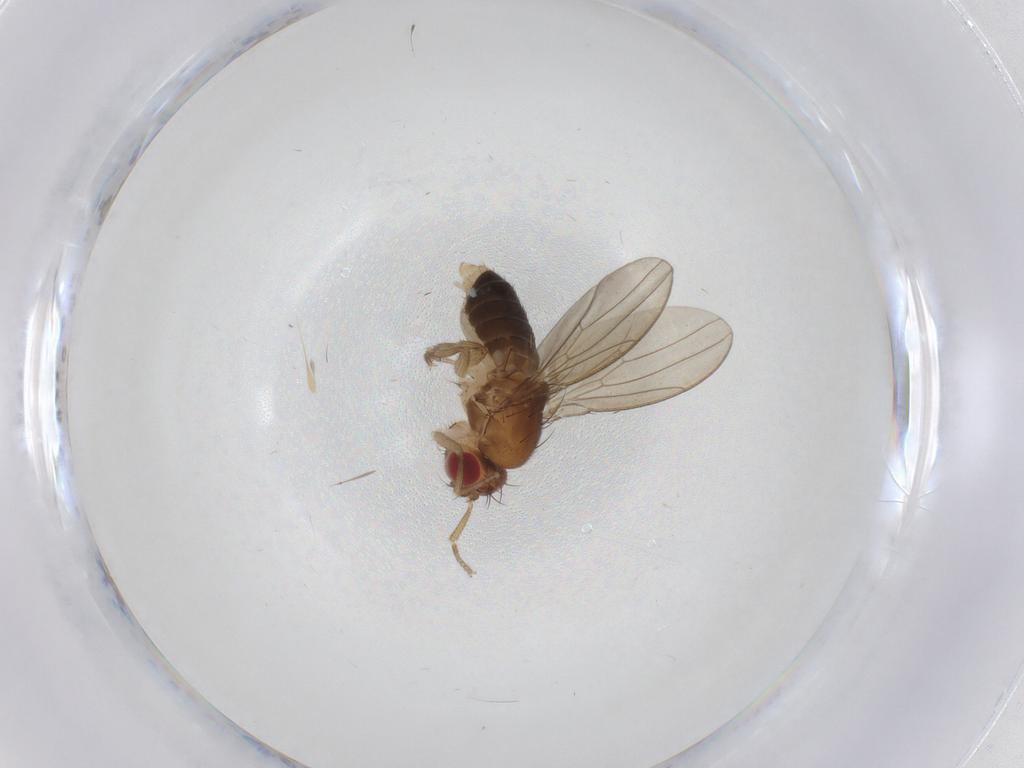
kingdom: Animalia
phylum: Arthropoda
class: Insecta
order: Diptera
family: Drosophilidae
